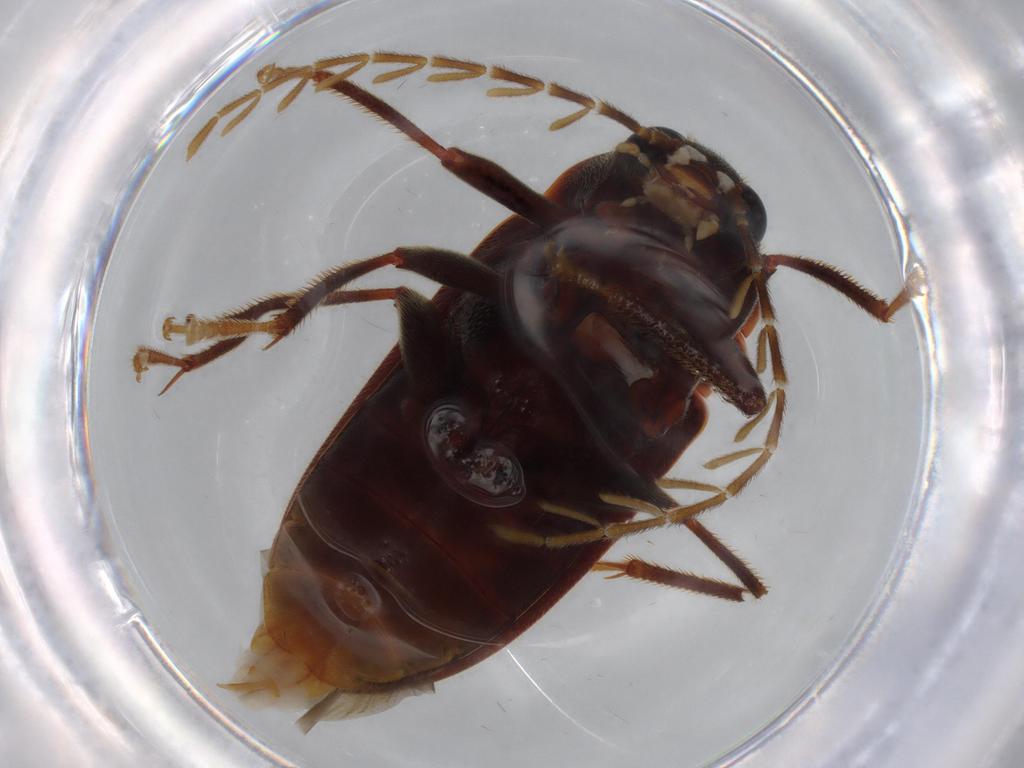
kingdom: Animalia
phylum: Arthropoda
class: Insecta
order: Coleoptera
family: Ptilodactylidae
